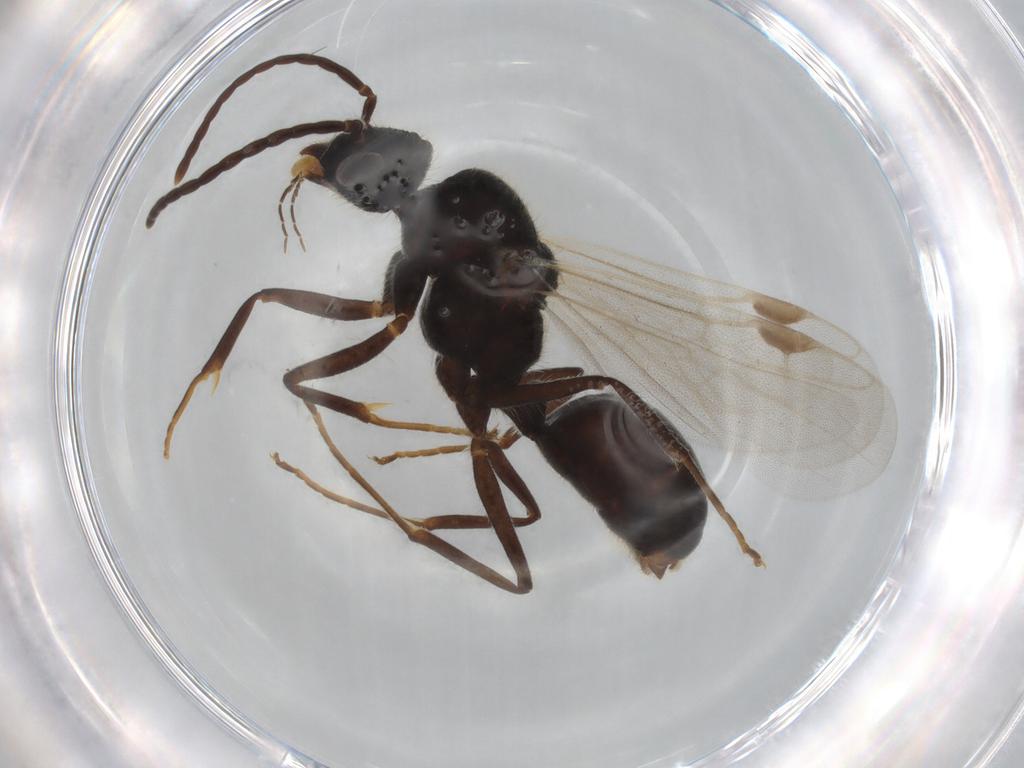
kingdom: Animalia
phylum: Arthropoda
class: Insecta
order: Hymenoptera
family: Formicidae
